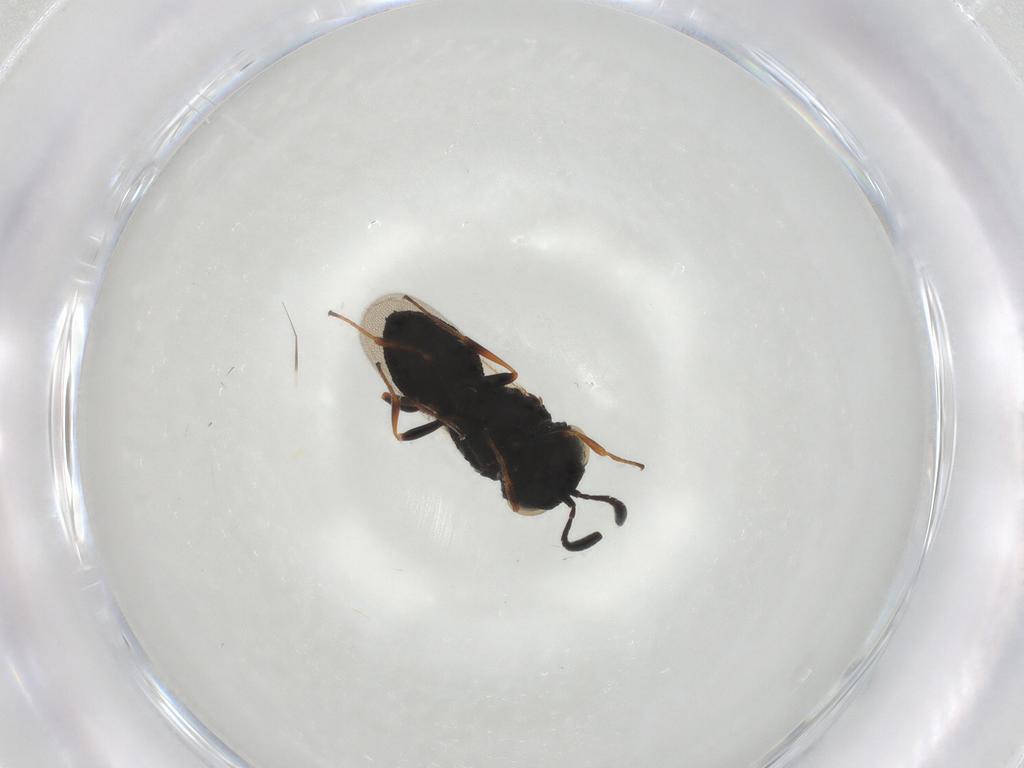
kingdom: Animalia
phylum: Arthropoda
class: Insecta
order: Hymenoptera
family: Scelionidae
